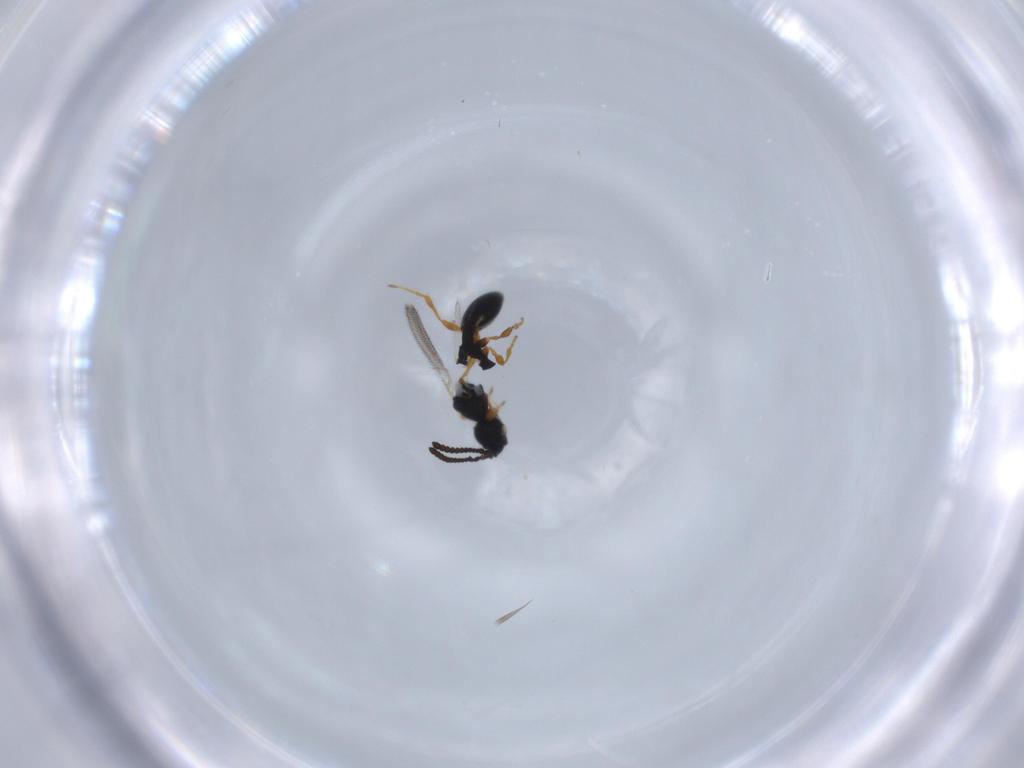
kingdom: Animalia
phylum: Arthropoda
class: Insecta
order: Hymenoptera
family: Diapriidae
